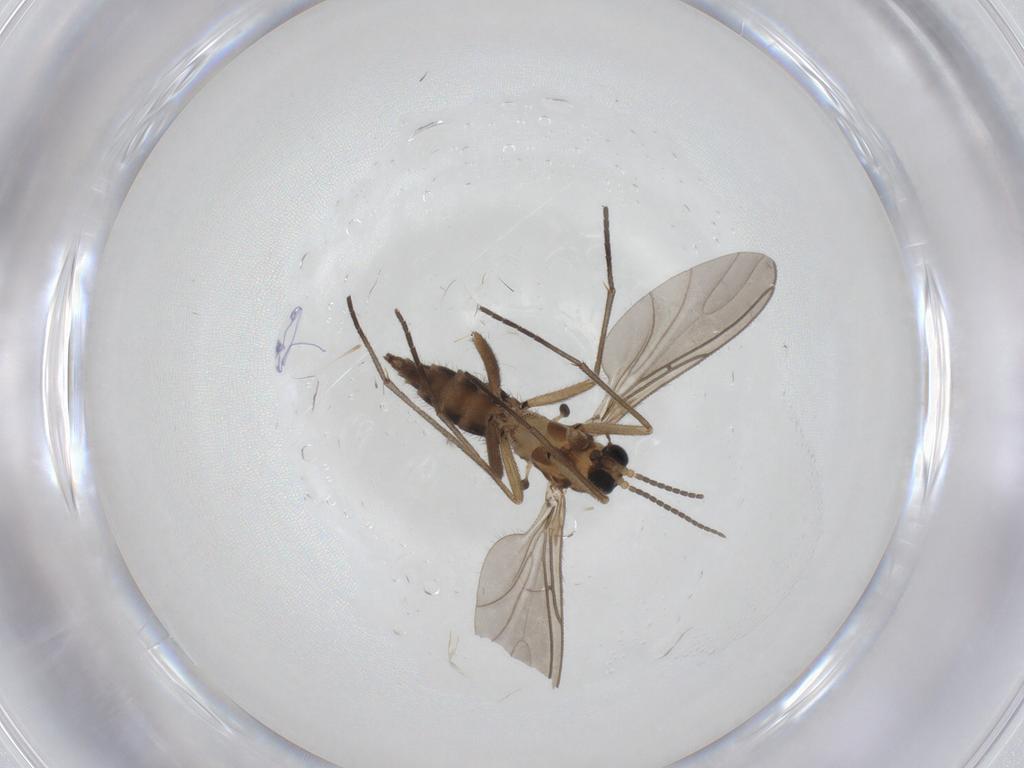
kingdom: Animalia
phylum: Arthropoda
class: Insecta
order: Diptera
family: Sciaridae
